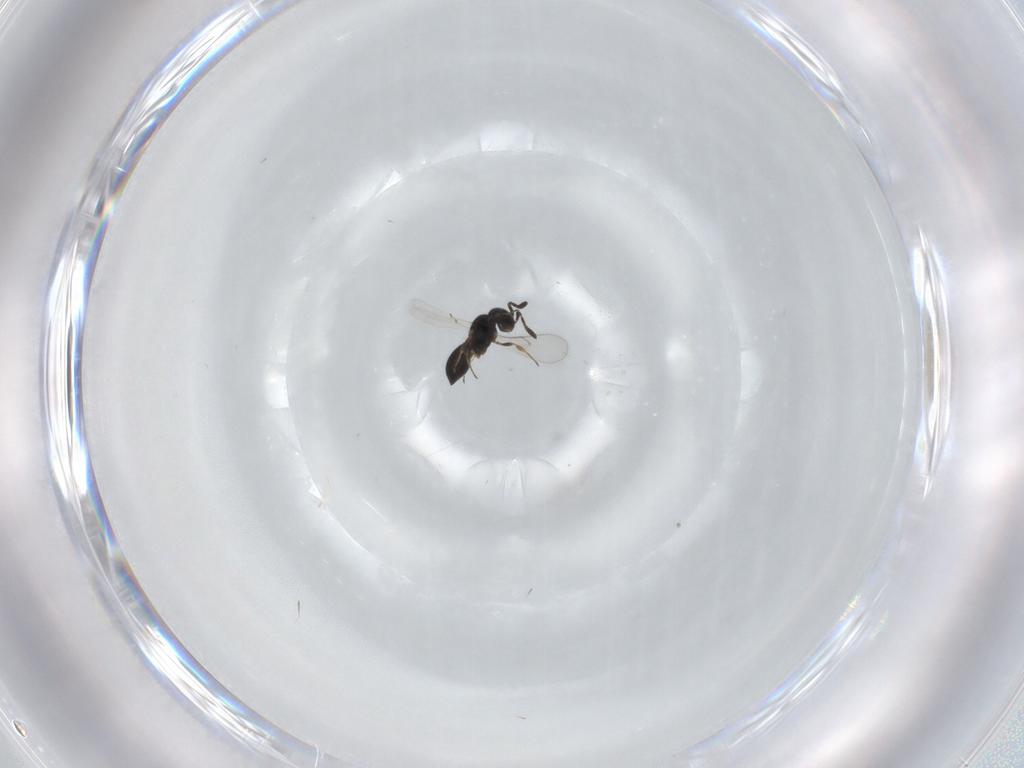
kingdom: Animalia
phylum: Arthropoda
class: Insecta
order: Hymenoptera
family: Scelionidae
